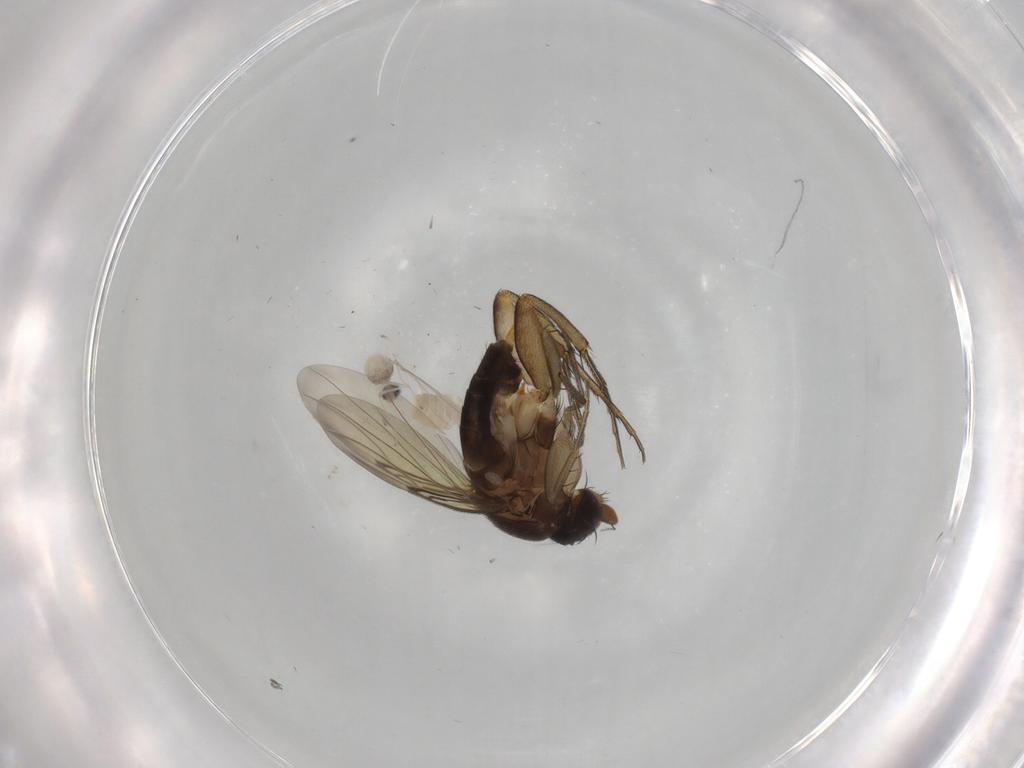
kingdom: Animalia
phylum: Arthropoda
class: Insecta
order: Diptera
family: Phoridae
